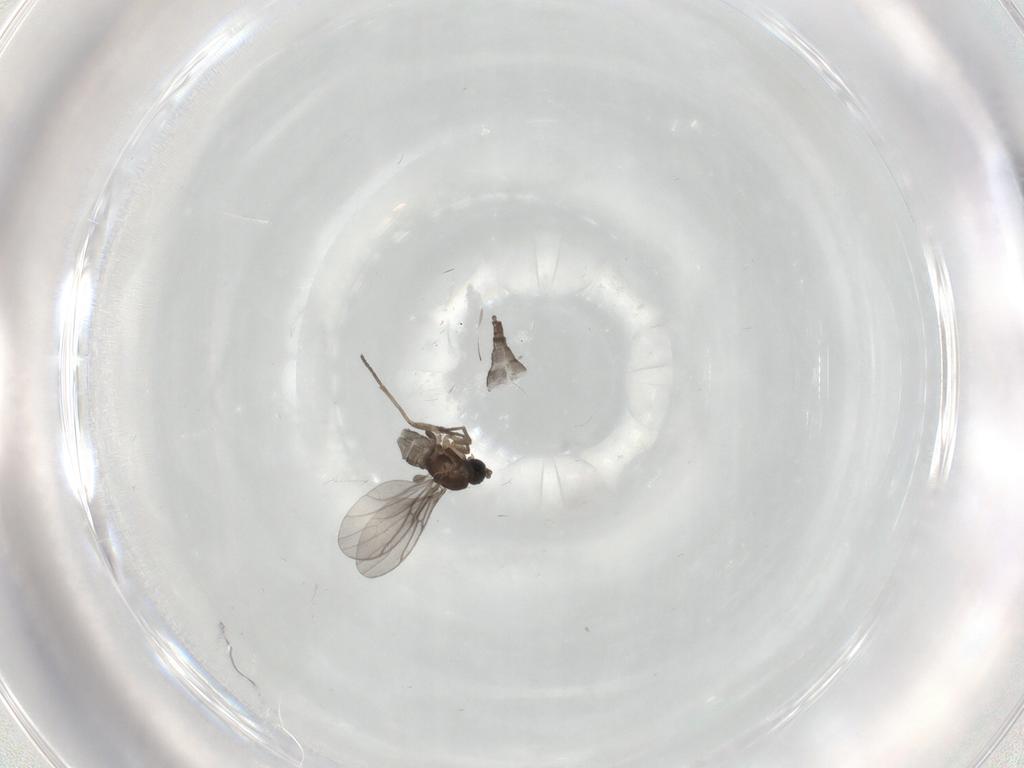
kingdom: Animalia
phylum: Arthropoda
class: Insecta
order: Diptera
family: Sciaridae
